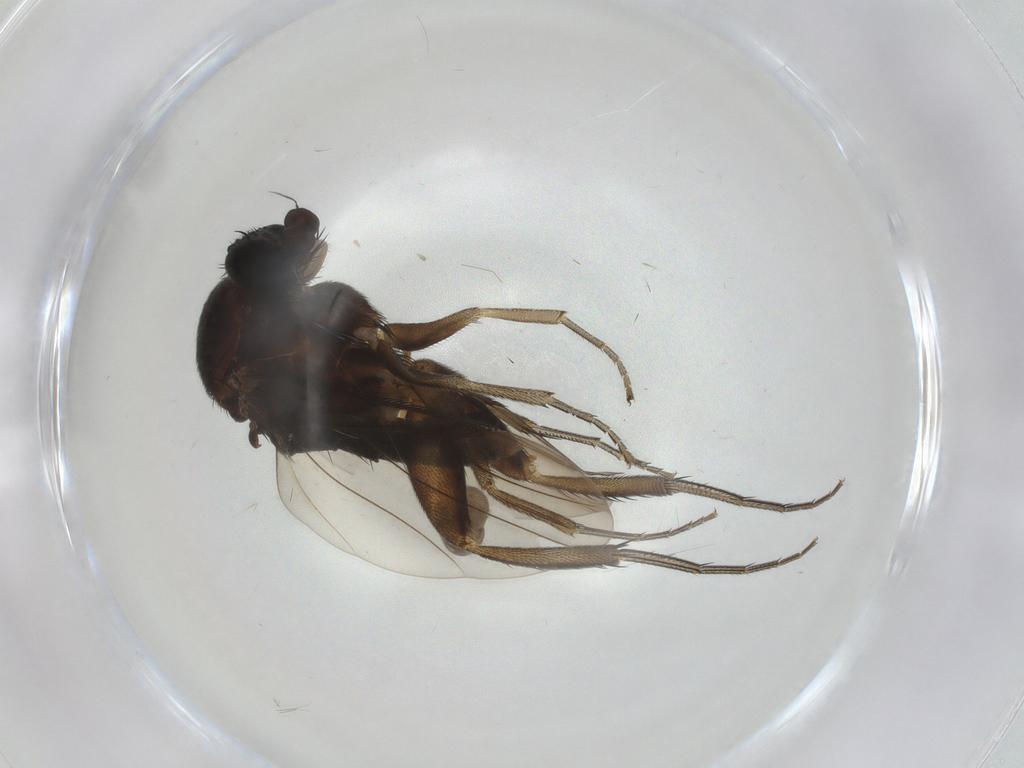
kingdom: Animalia
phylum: Arthropoda
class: Insecta
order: Diptera
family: Phoridae
